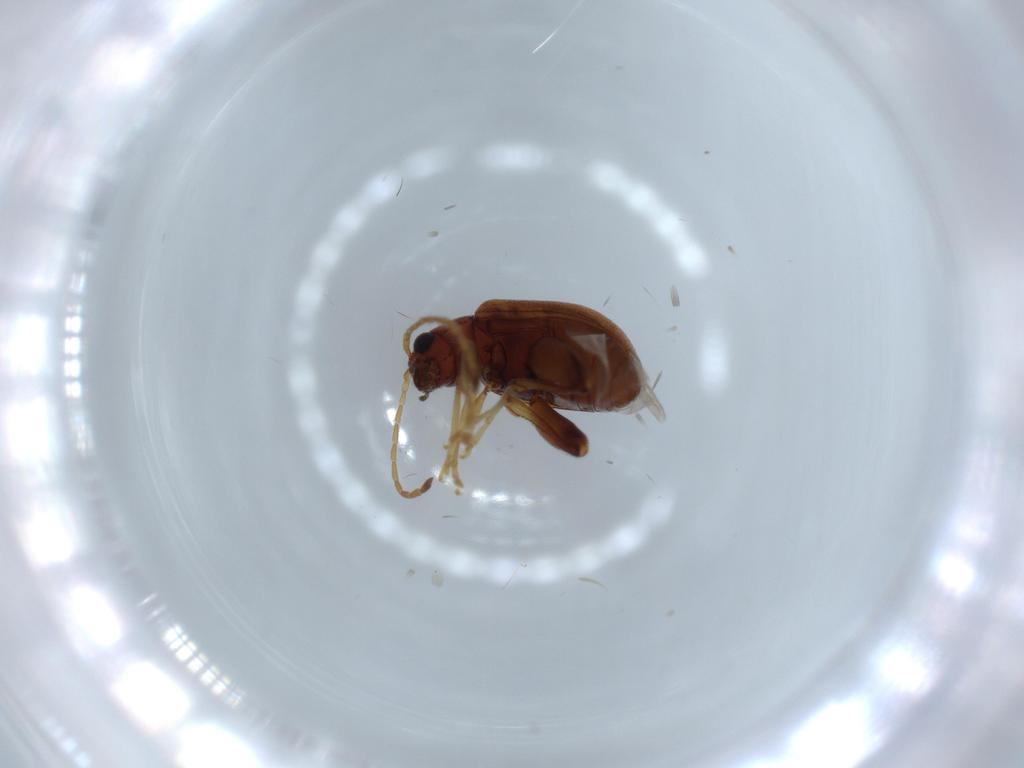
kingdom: Animalia
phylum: Arthropoda
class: Insecta
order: Coleoptera
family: Chrysomelidae
